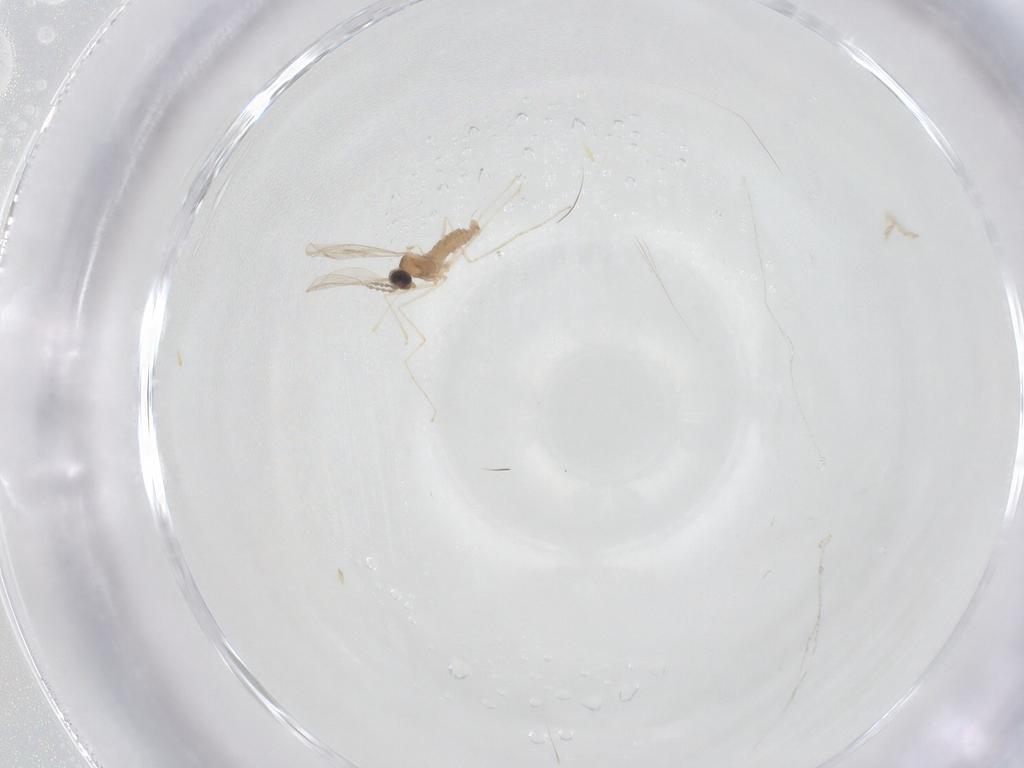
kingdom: Animalia
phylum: Arthropoda
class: Insecta
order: Diptera
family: Cecidomyiidae
